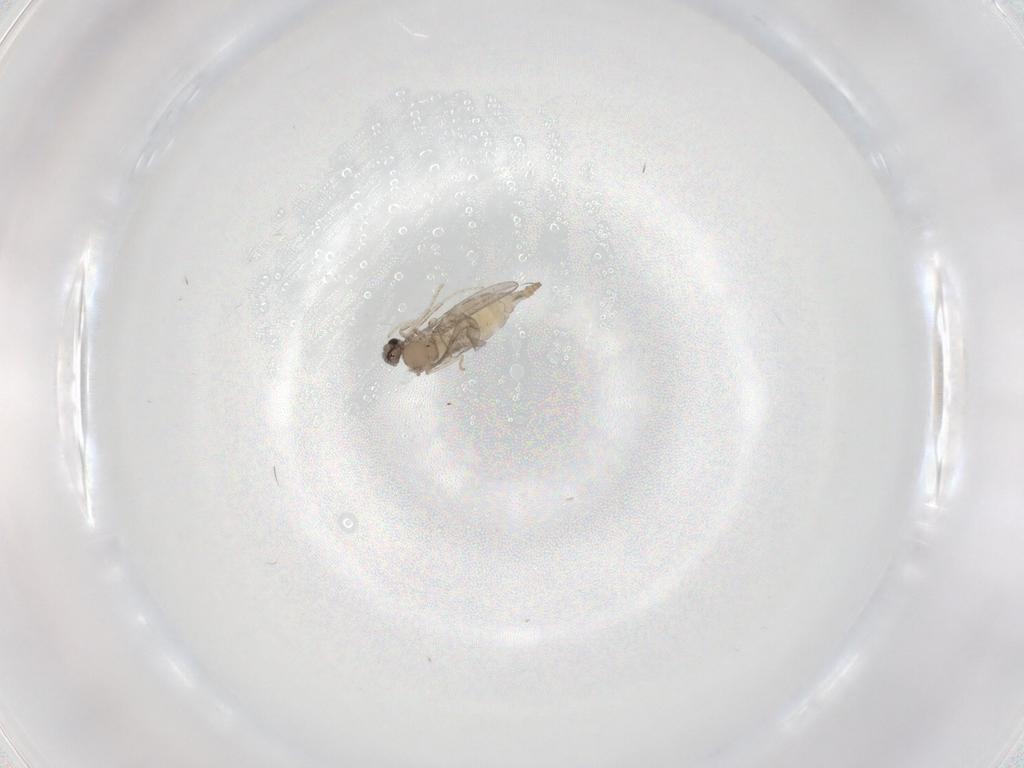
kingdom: Animalia
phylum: Arthropoda
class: Insecta
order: Diptera
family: Cecidomyiidae
